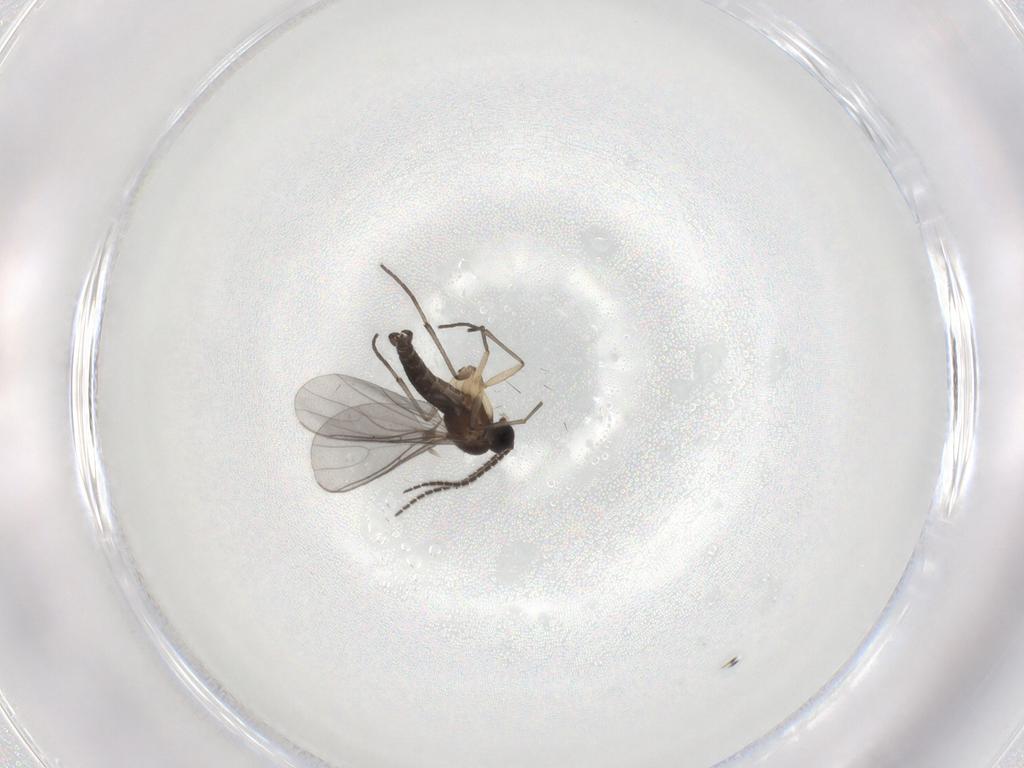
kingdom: Animalia
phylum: Arthropoda
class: Insecta
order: Diptera
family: Sciaridae
